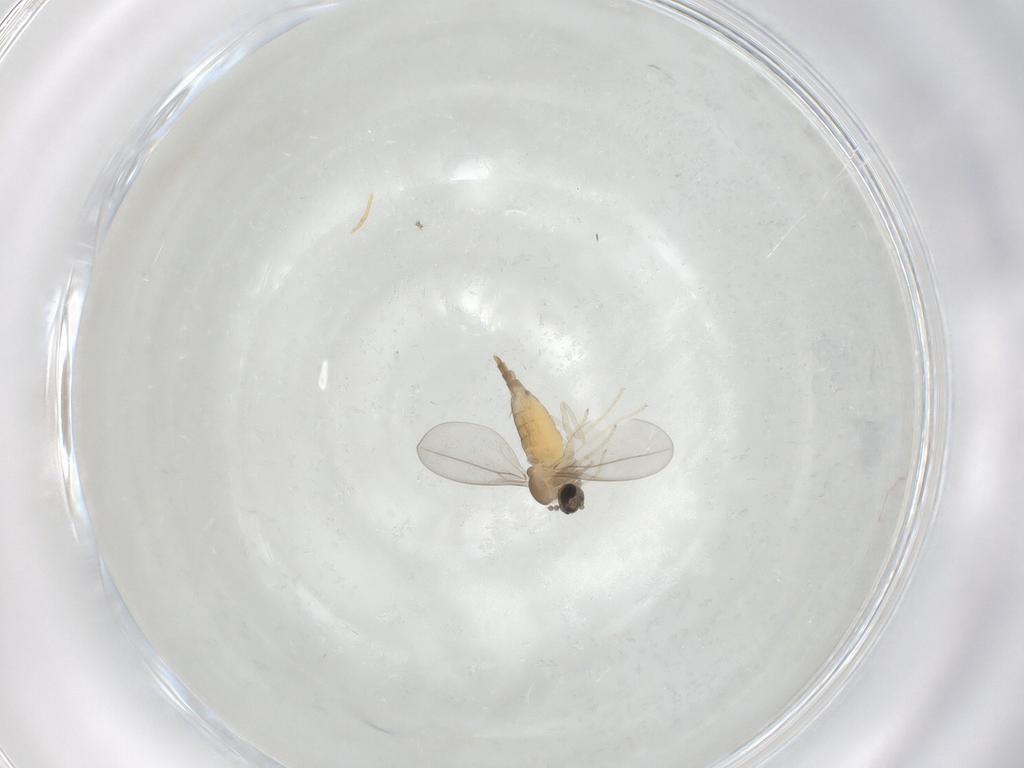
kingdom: Animalia
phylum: Arthropoda
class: Insecta
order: Diptera
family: Cecidomyiidae
